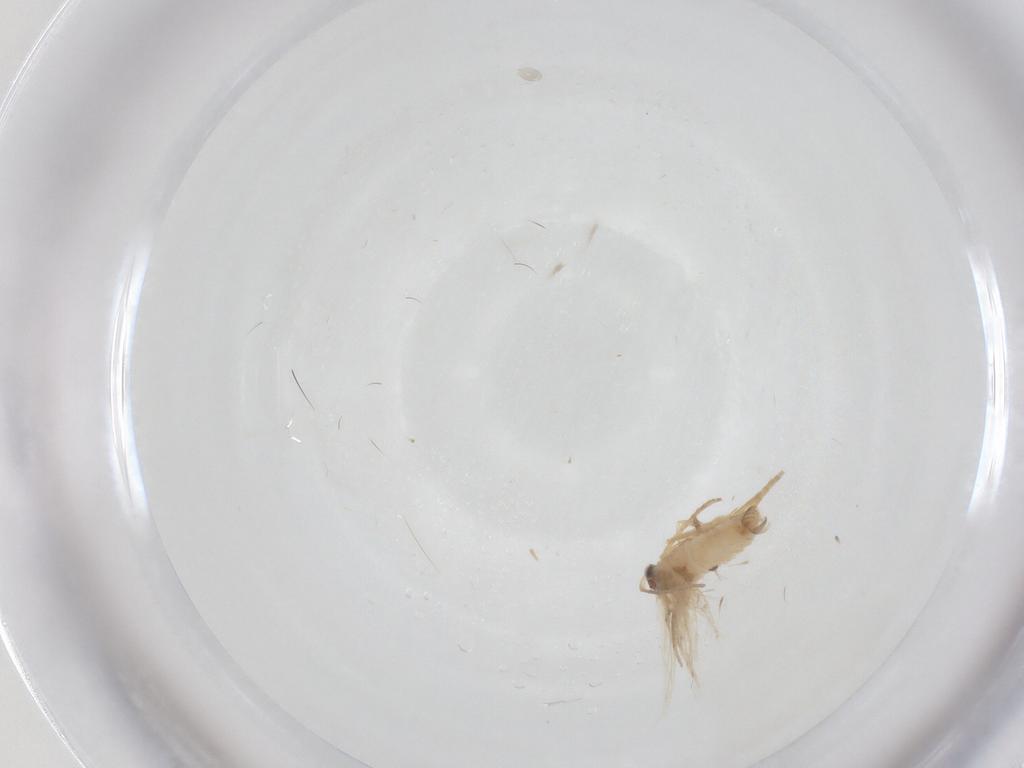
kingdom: Animalia
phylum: Arthropoda
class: Insecta
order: Lepidoptera
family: Nepticulidae
